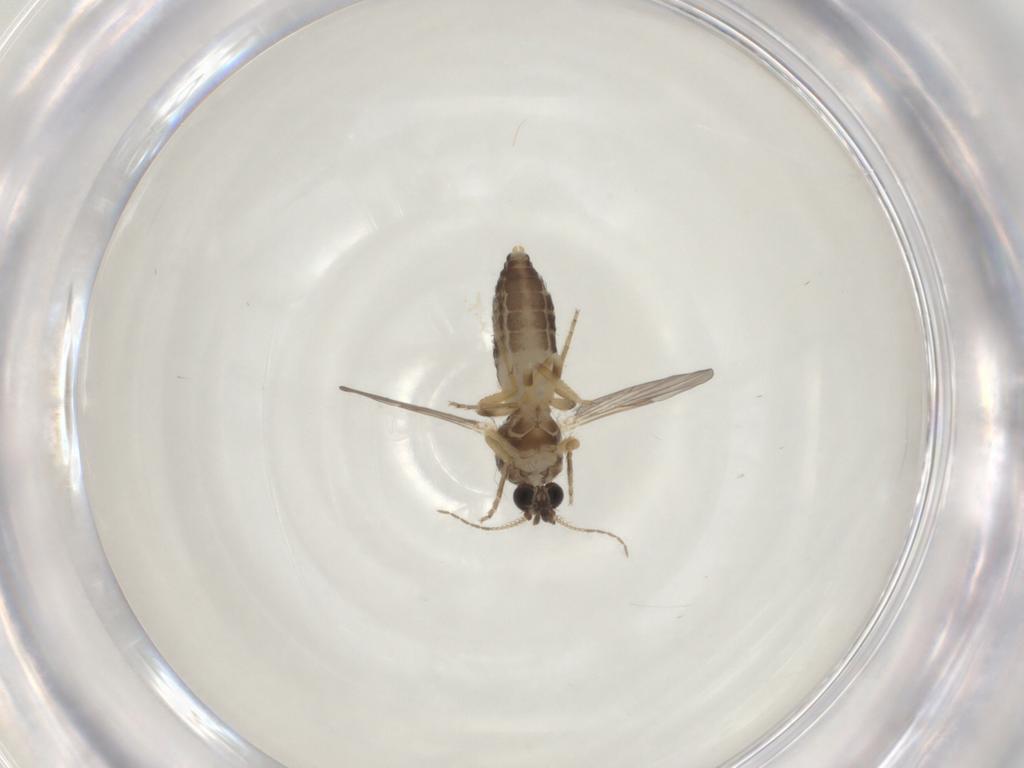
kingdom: Animalia
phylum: Arthropoda
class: Insecta
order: Diptera
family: Ceratopogonidae
